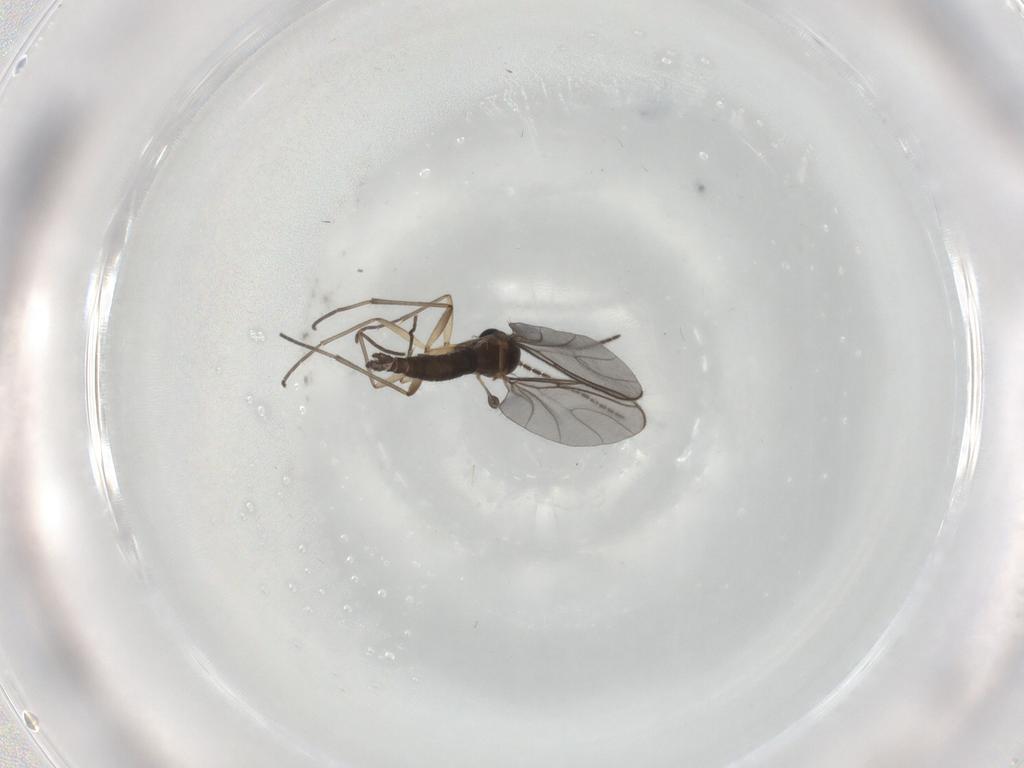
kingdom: Animalia
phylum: Arthropoda
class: Insecta
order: Diptera
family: Sciaridae
